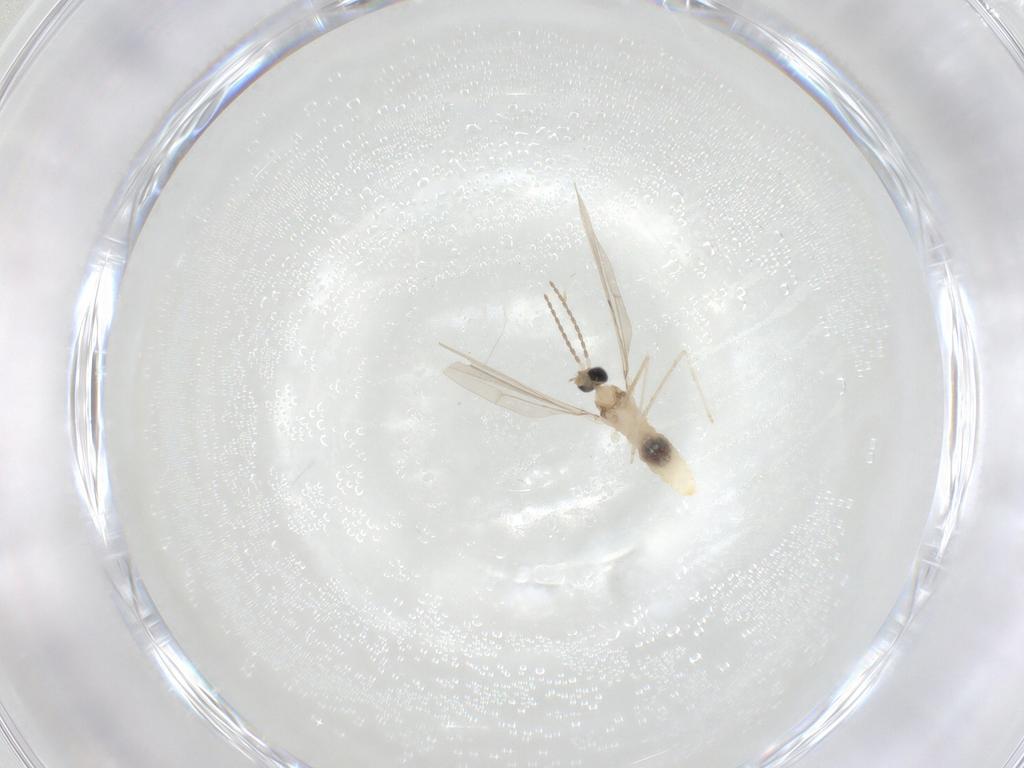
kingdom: Animalia
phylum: Arthropoda
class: Insecta
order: Diptera
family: Cecidomyiidae
